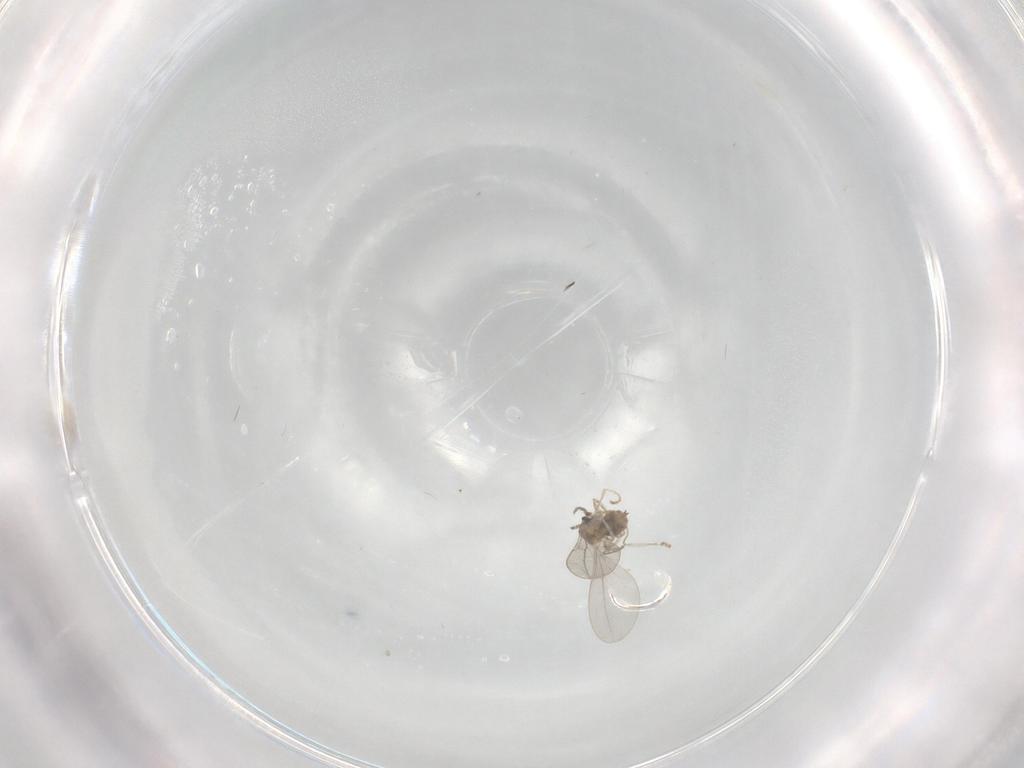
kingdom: Animalia
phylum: Arthropoda
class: Insecta
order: Diptera
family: Cecidomyiidae
